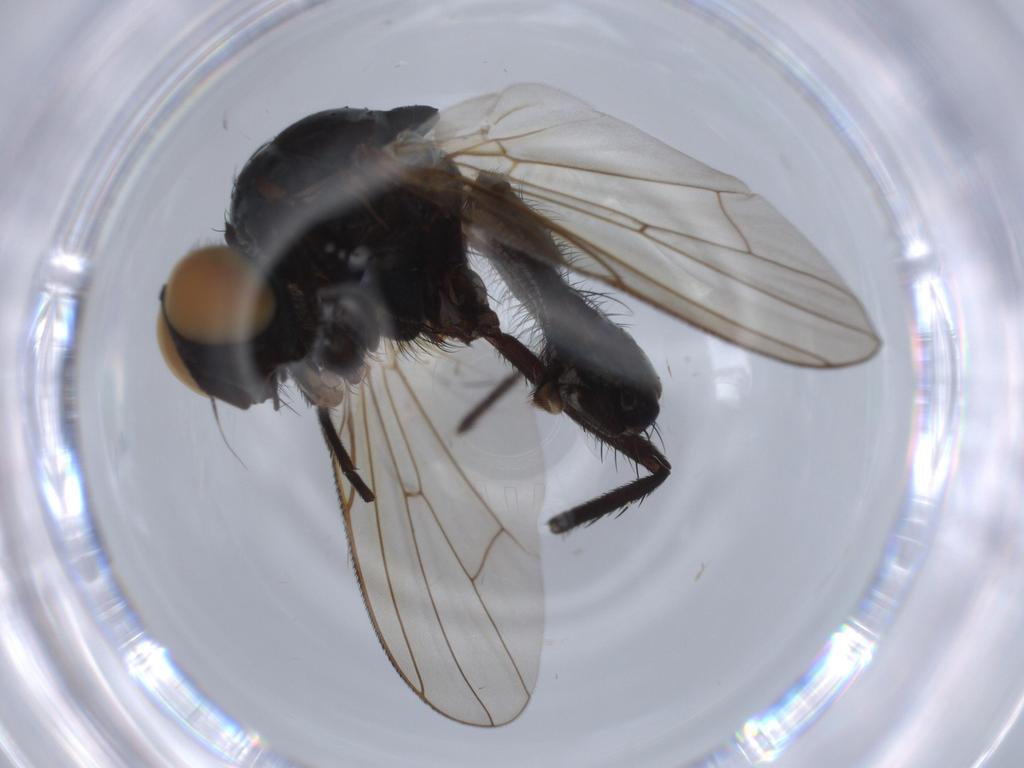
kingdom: Animalia
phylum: Arthropoda
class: Insecta
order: Diptera
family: Anthomyiidae
